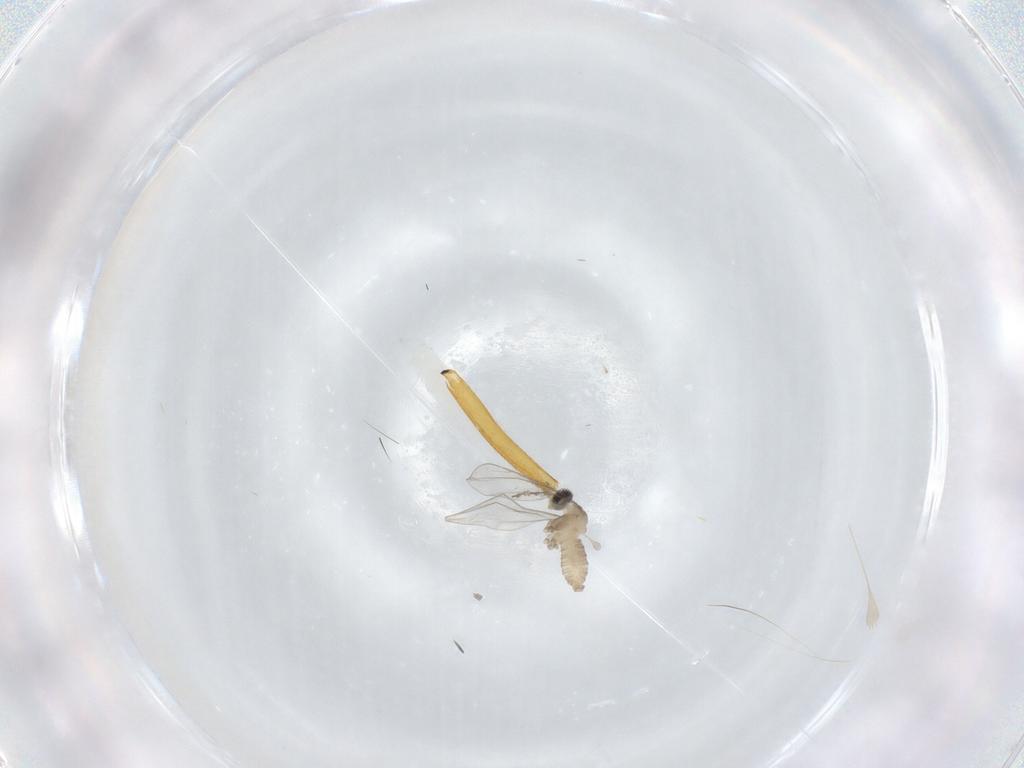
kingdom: Animalia
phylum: Arthropoda
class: Insecta
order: Diptera
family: Cecidomyiidae
